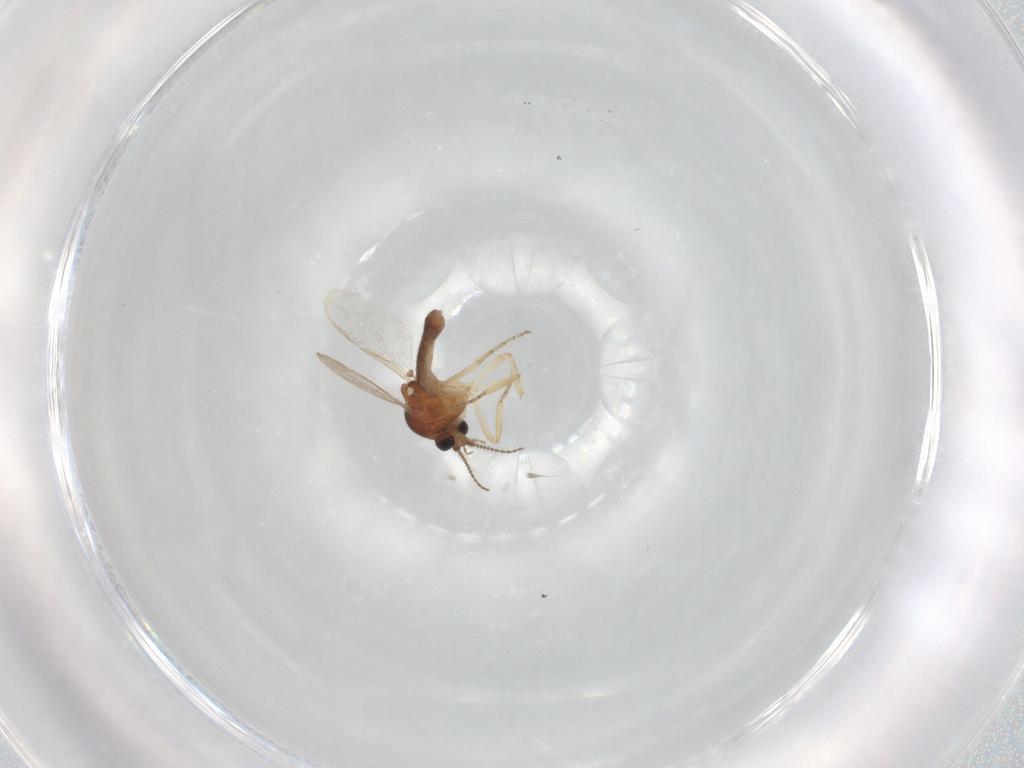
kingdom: Animalia
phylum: Arthropoda
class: Insecta
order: Diptera
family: Ceratopogonidae
